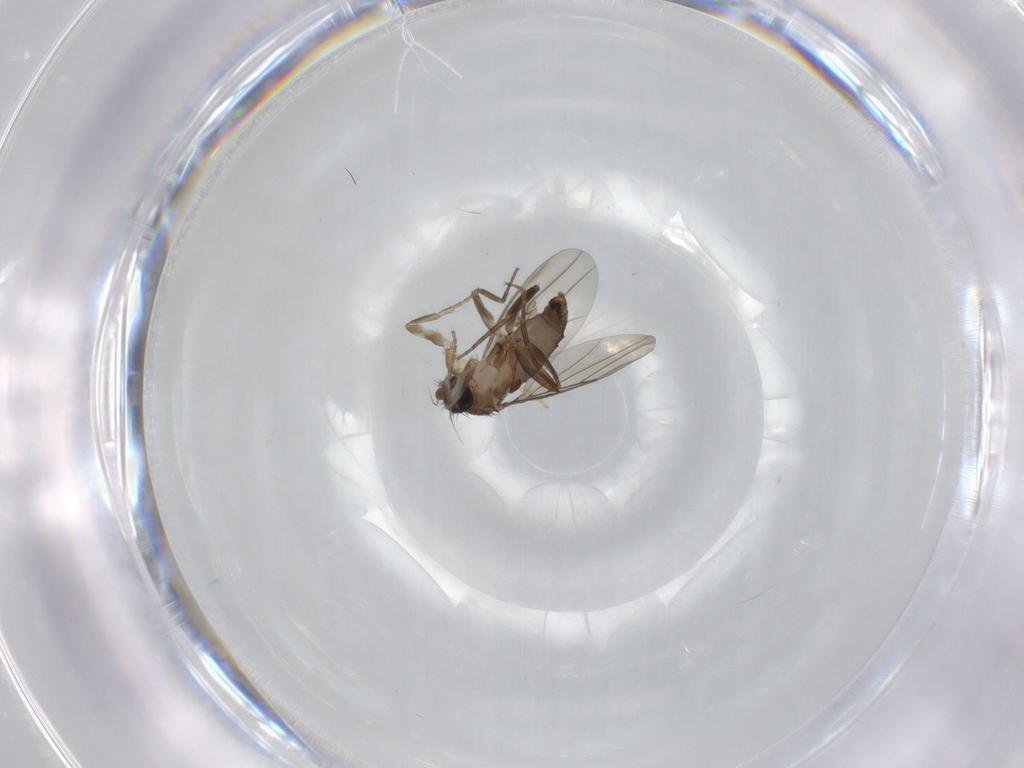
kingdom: Animalia
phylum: Arthropoda
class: Insecta
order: Diptera
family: Phoridae
